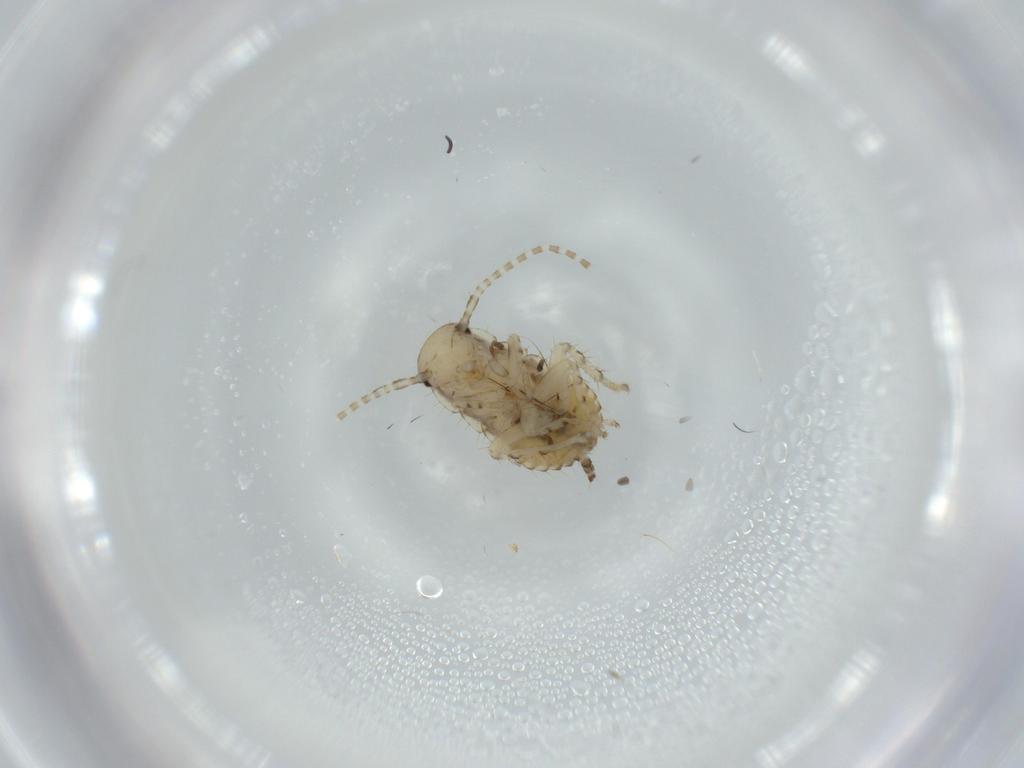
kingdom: Animalia
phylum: Arthropoda
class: Insecta
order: Blattodea
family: Ectobiidae
